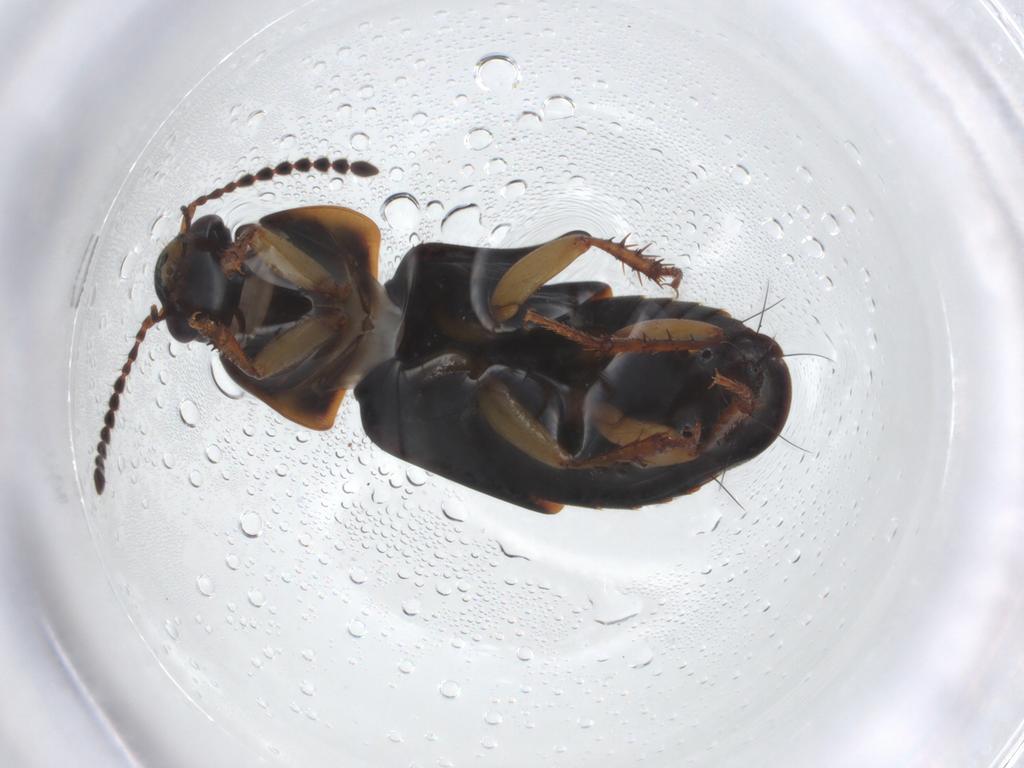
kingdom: Animalia
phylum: Arthropoda
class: Insecta
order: Coleoptera
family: Staphylinidae
